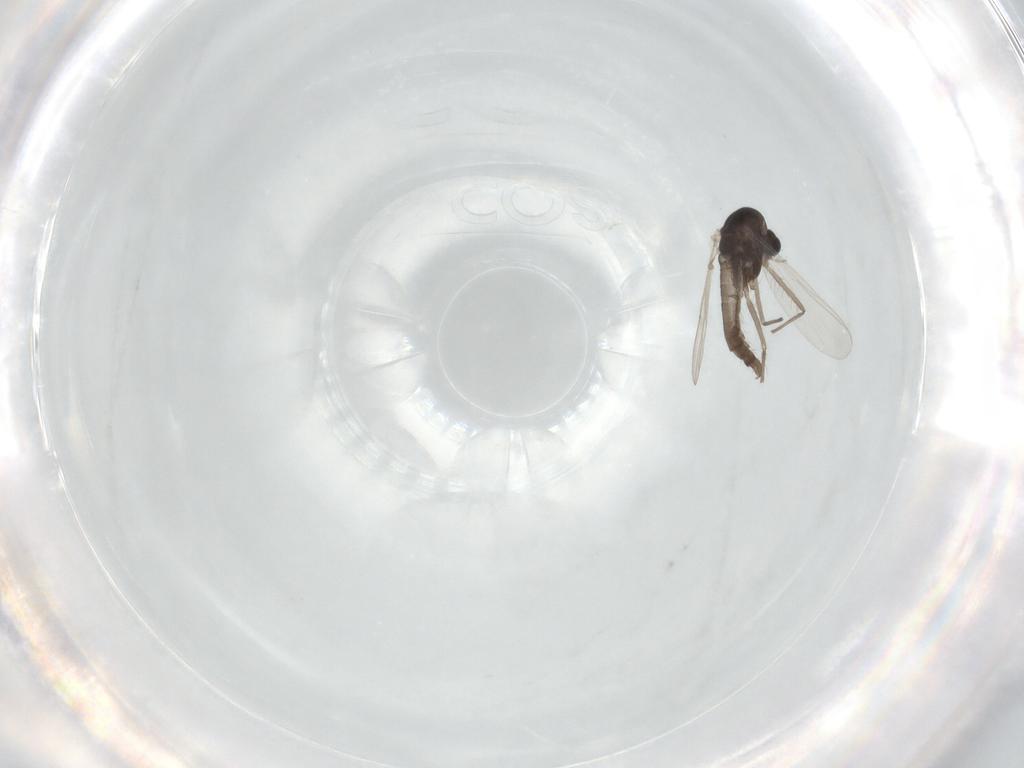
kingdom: Animalia
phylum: Arthropoda
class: Insecta
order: Diptera
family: Chironomidae
